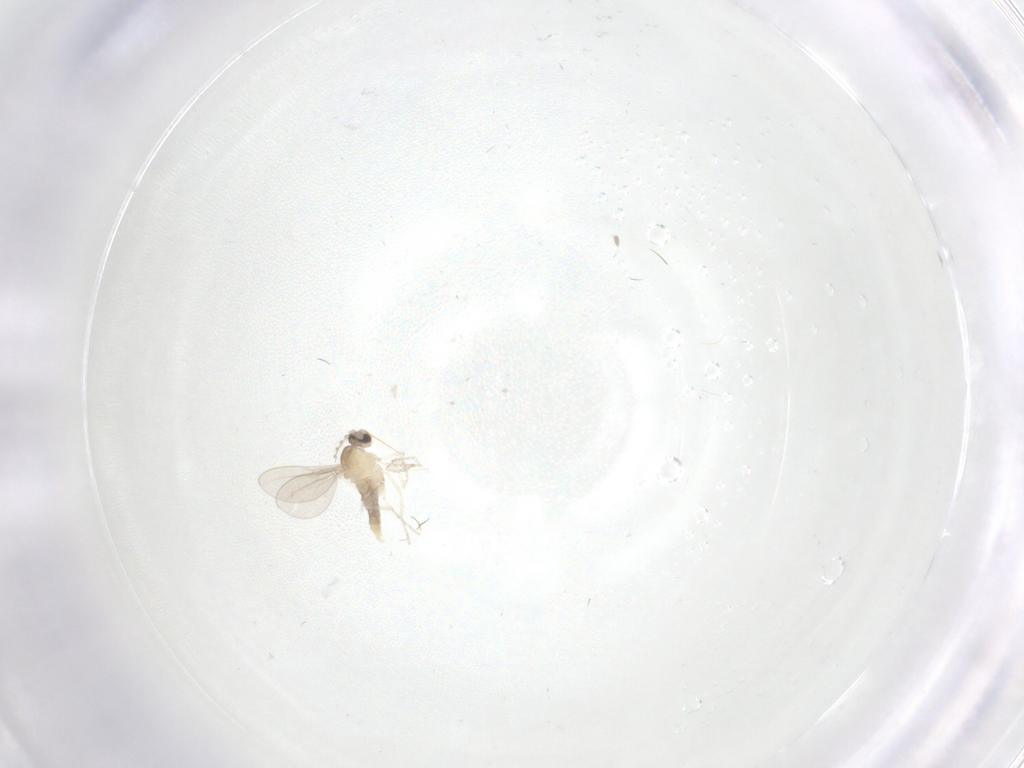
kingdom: Animalia
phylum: Arthropoda
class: Insecta
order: Diptera
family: Cecidomyiidae
